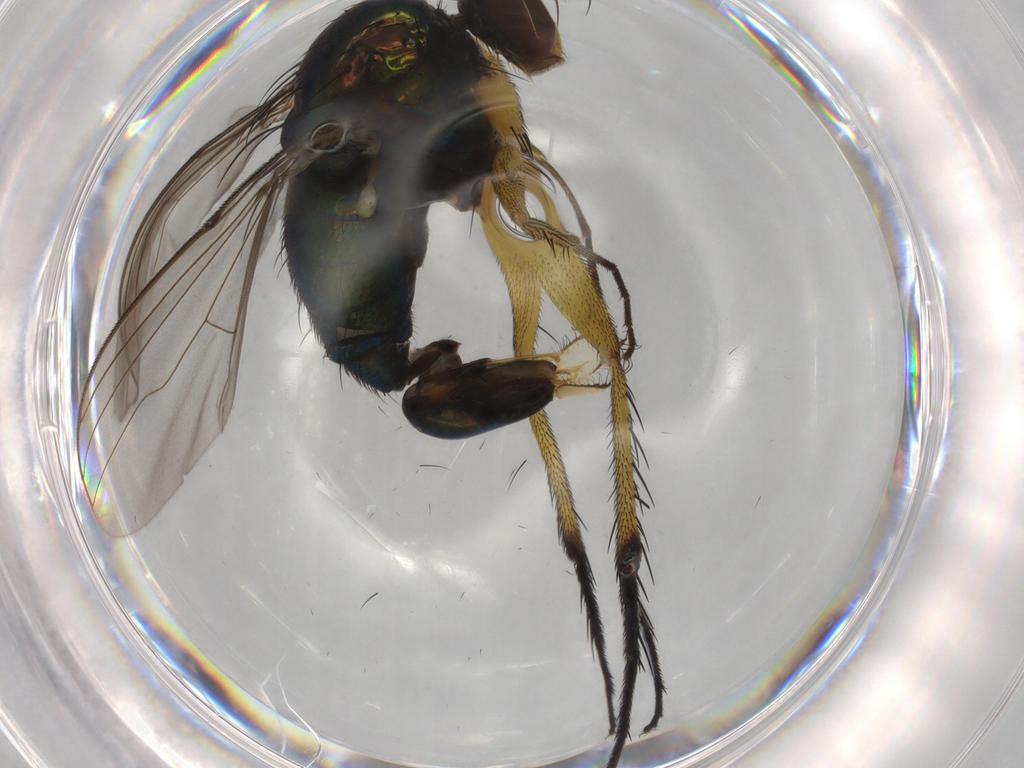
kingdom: Animalia
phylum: Arthropoda
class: Insecta
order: Diptera
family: Dolichopodidae
